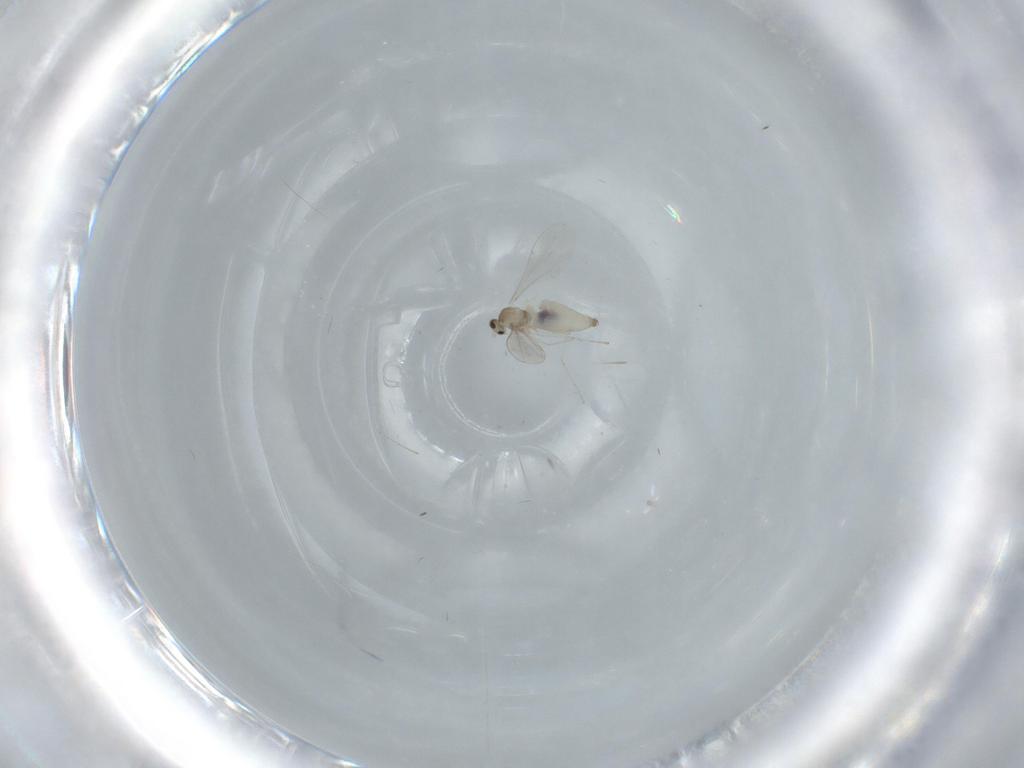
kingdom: Animalia
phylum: Arthropoda
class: Insecta
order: Diptera
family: Cecidomyiidae
